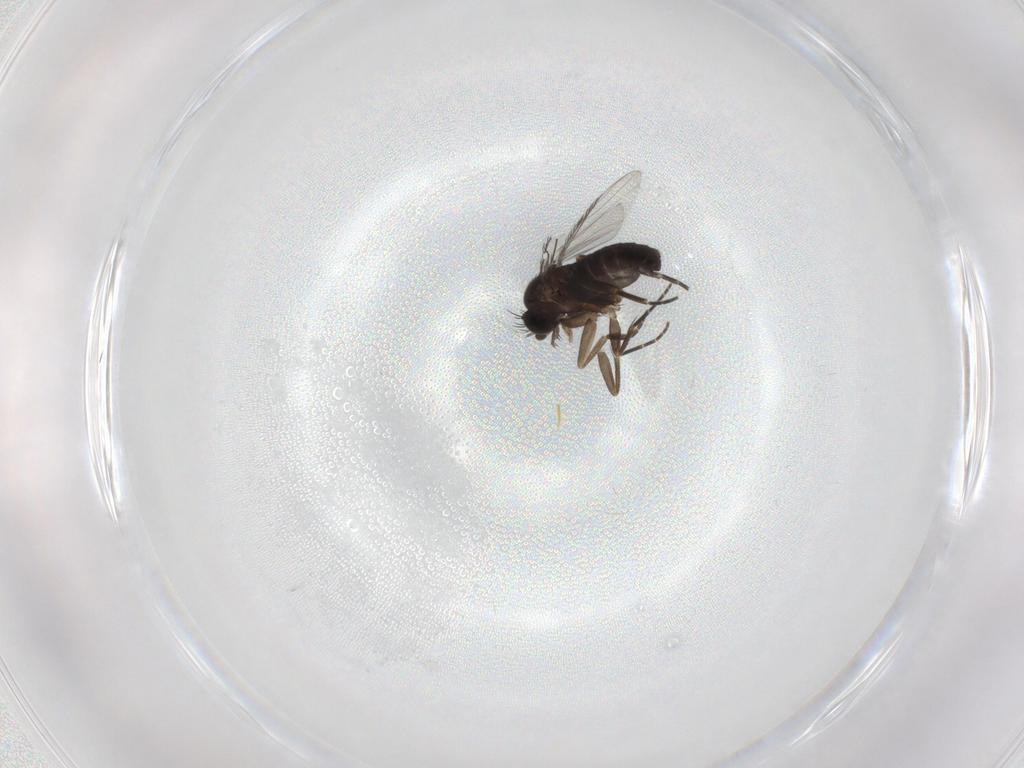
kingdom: Animalia
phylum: Arthropoda
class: Insecta
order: Diptera
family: Phoridae
